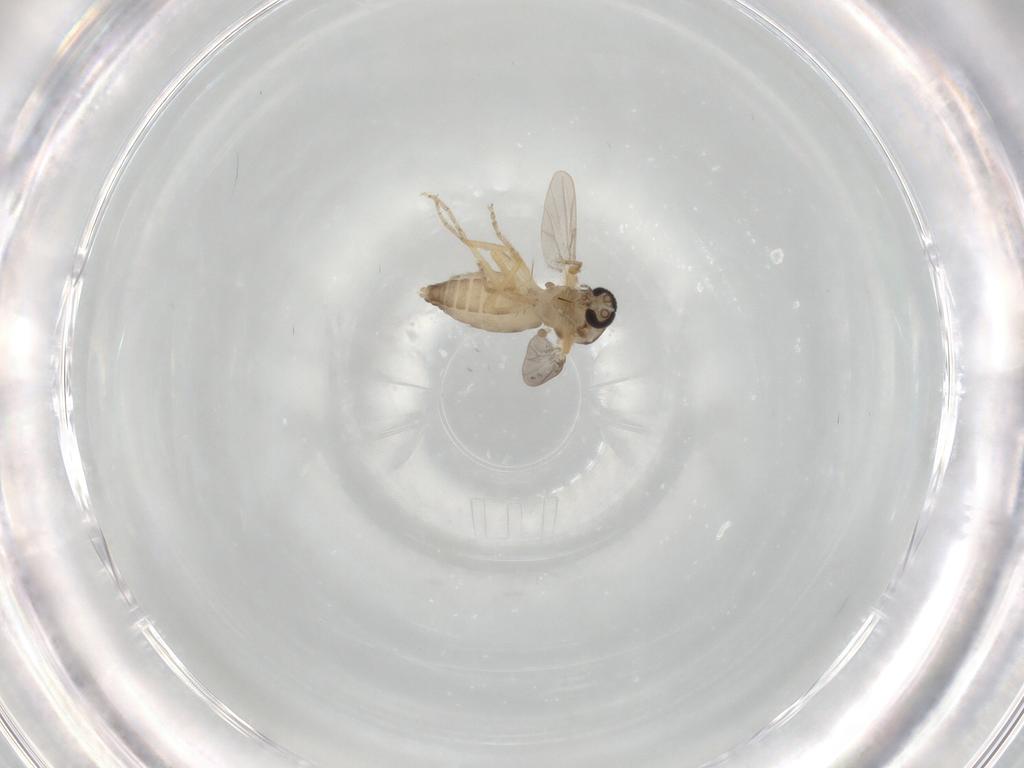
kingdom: Animalia
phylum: Arthropoda
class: Insecta
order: Diptera
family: Ceratopogonidae
